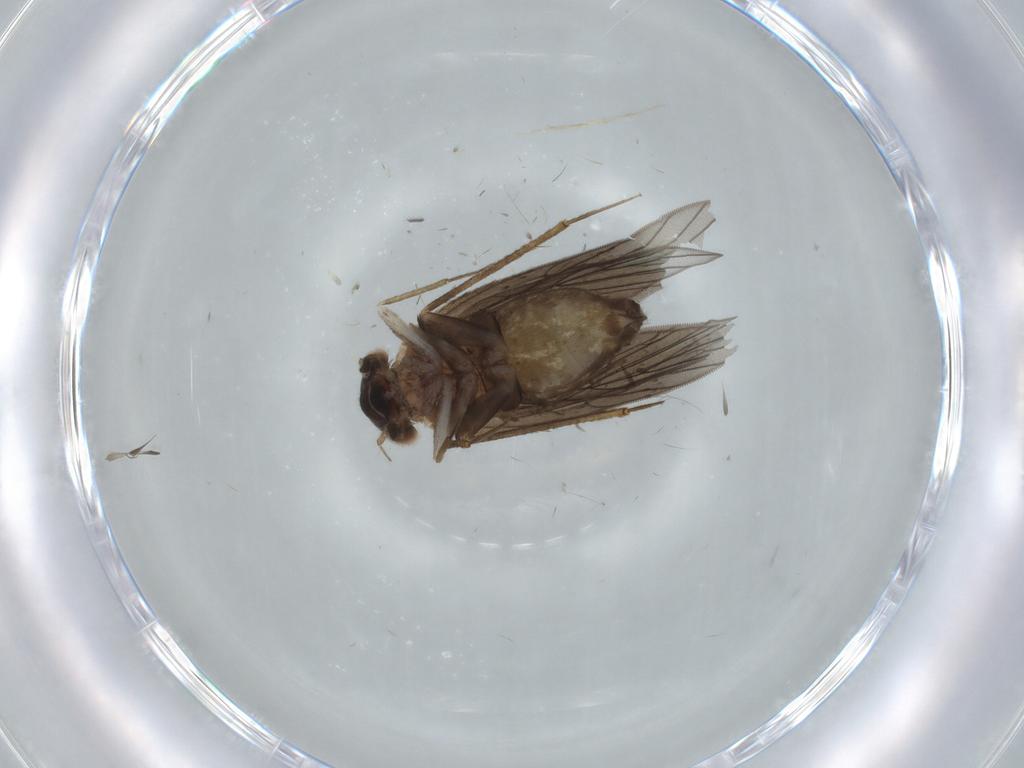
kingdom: Animalia
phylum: Arthropoda
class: Insecta
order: Psocodea
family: Lepidopsocidae
